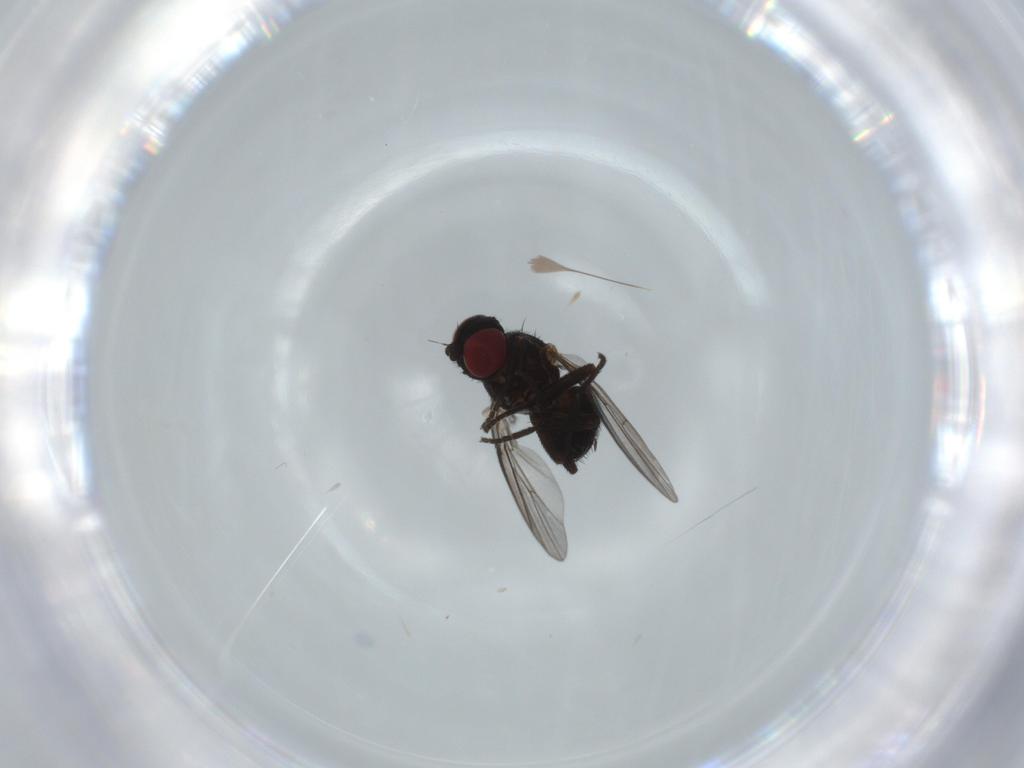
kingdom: Animalia
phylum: Arthropoda
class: Insecta
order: Diptera
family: Agromyzidae
